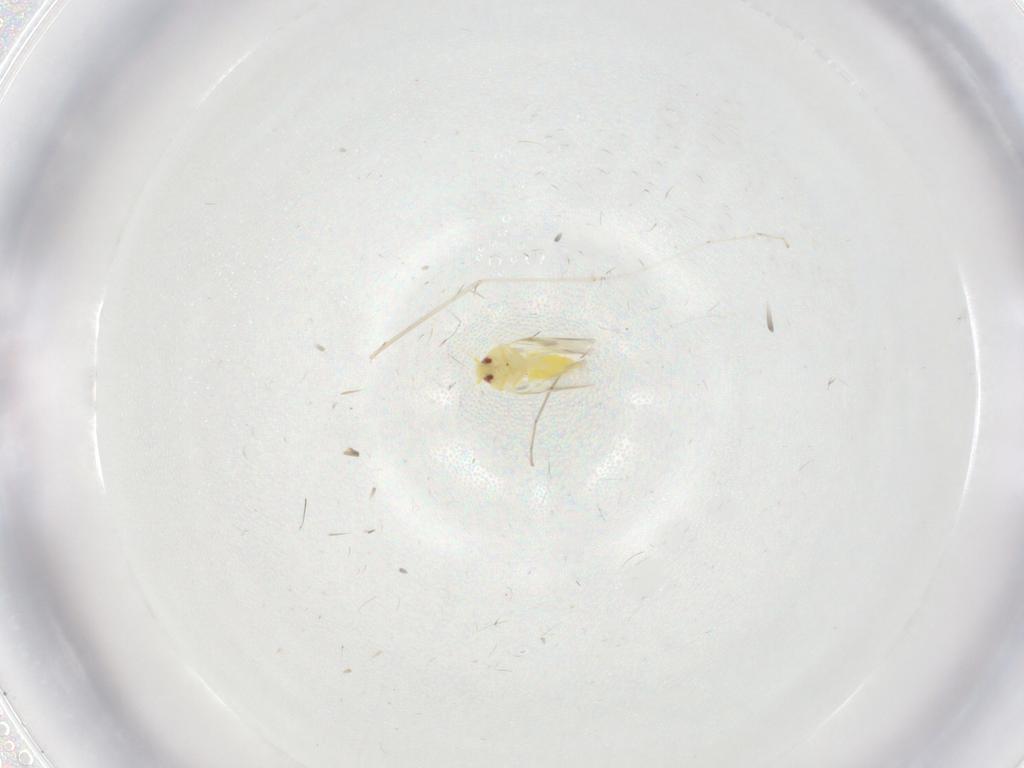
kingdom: Animalia
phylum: Arthropoda
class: Insecta
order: Hemiptera
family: Aleyrodidae
